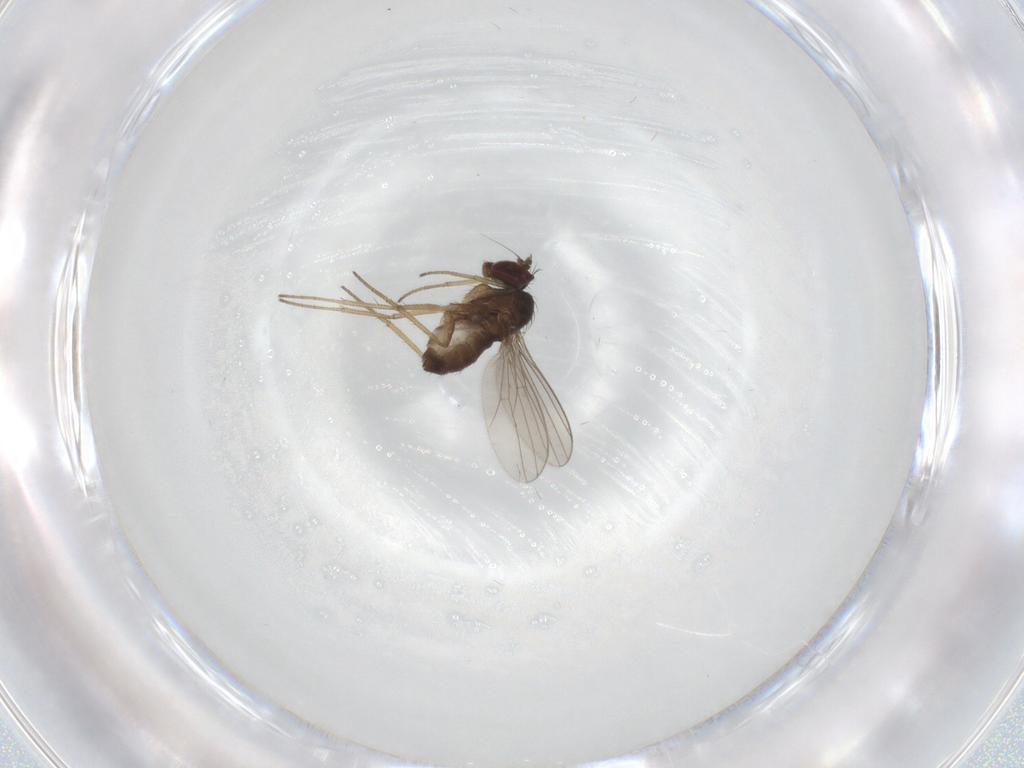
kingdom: Animalia
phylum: Arthropoda
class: Insecta
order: Diptera
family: Dolichopodidae
